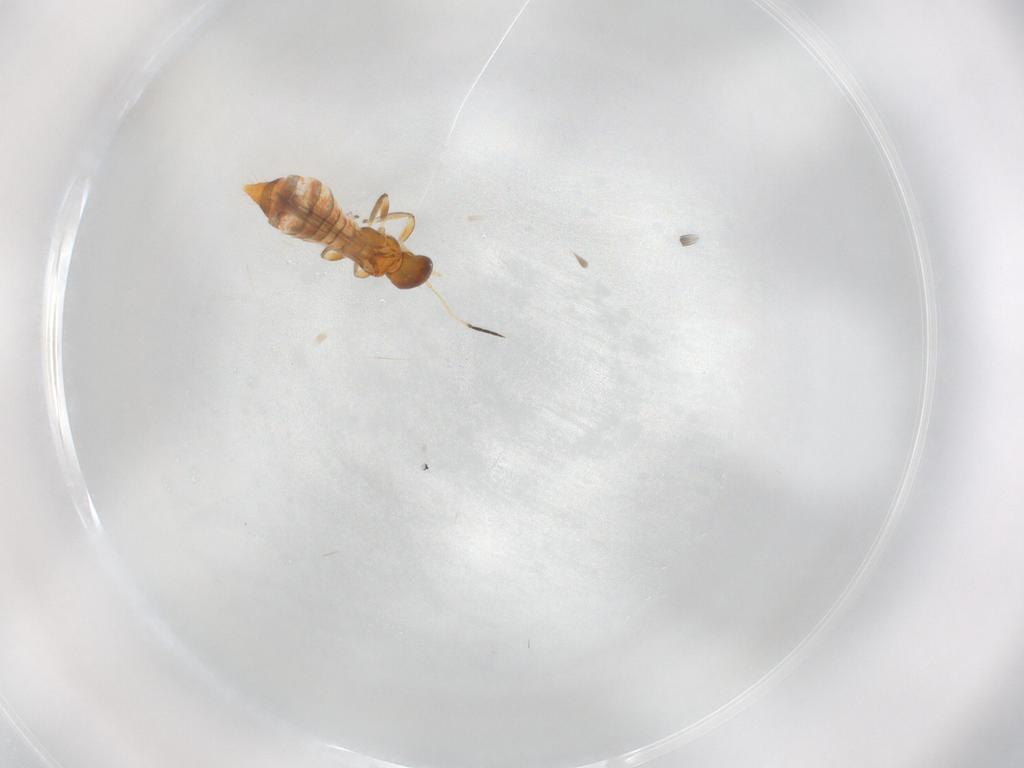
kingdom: Animalia
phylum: Arthropoda
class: Insecta
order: Thysanoptera
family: Aeolothripidae
